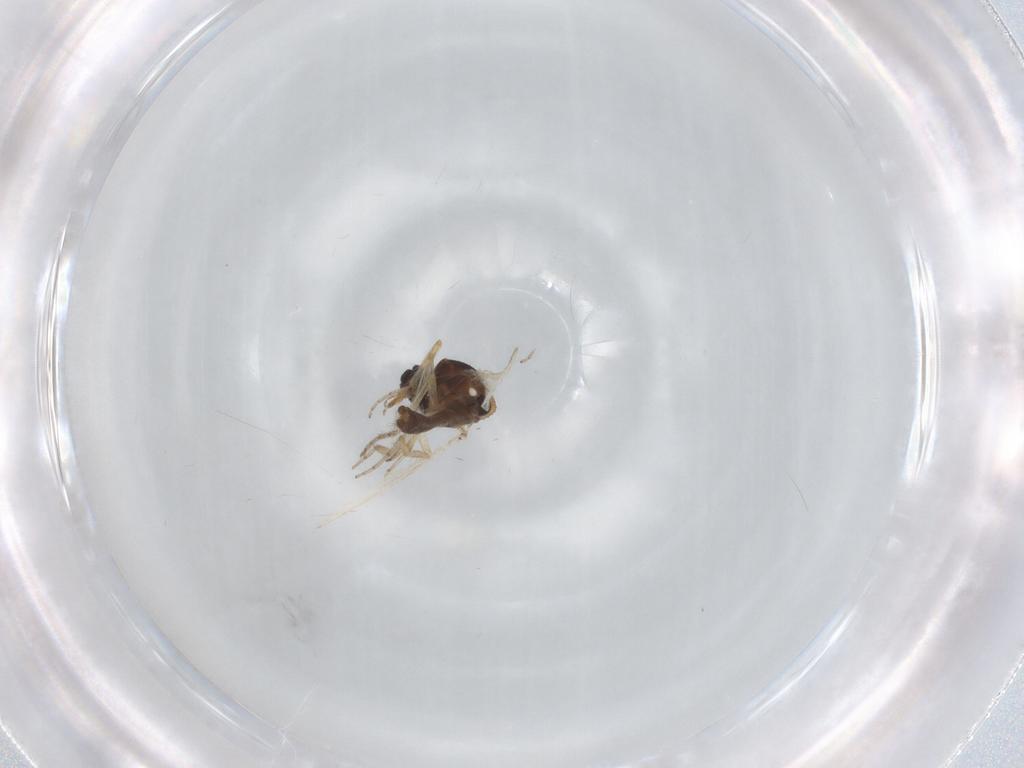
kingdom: Animalia
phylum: Arthropoda
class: Insecta
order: Diptera
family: Ceratopogonidae
